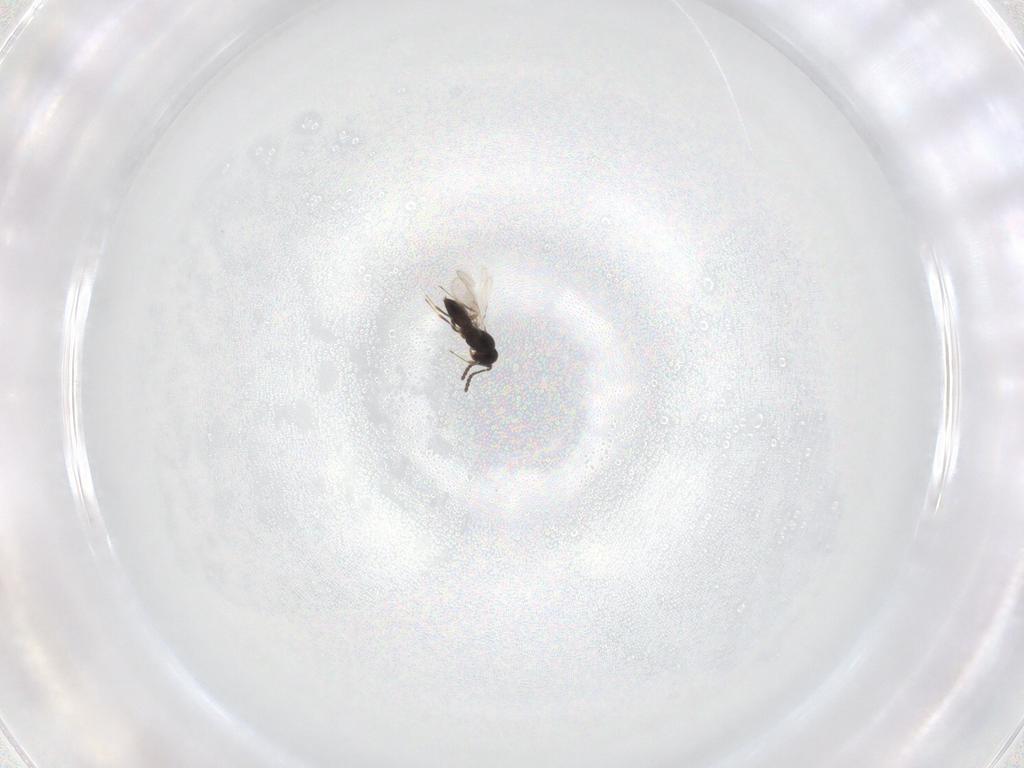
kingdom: Animalia
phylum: Arthropoda
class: Insecta
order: Hymenoptera
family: Scelionidae
